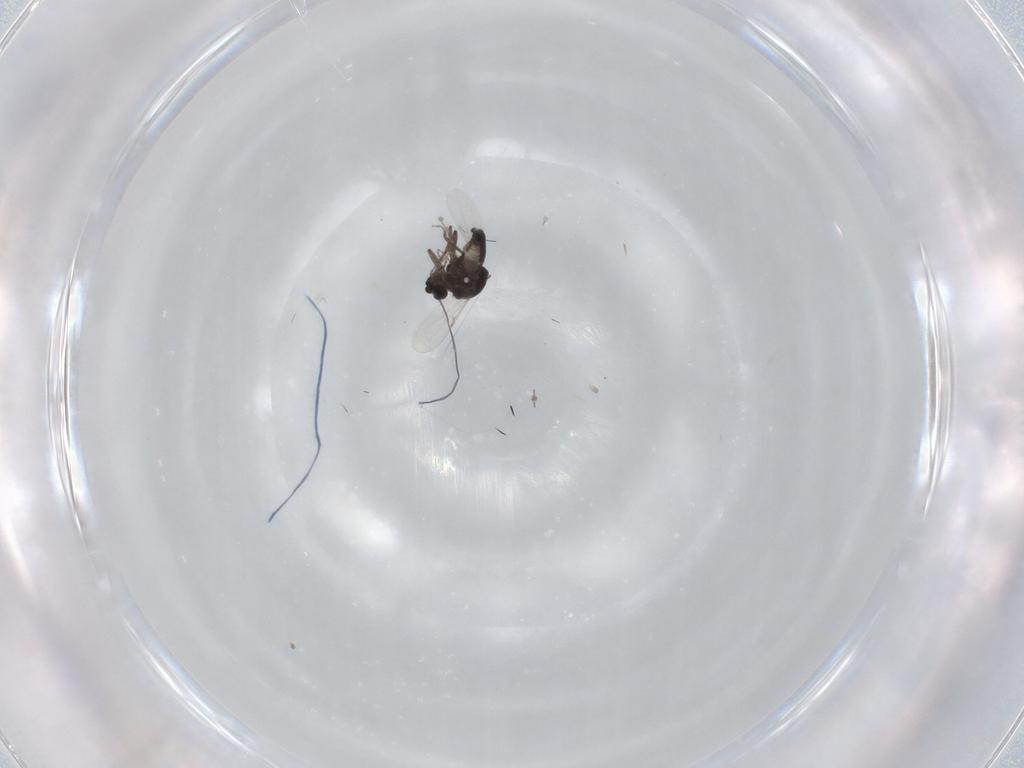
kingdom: Animalia
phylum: Arthropoda
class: Insecta
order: Diptera
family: Ceratopogonidae
